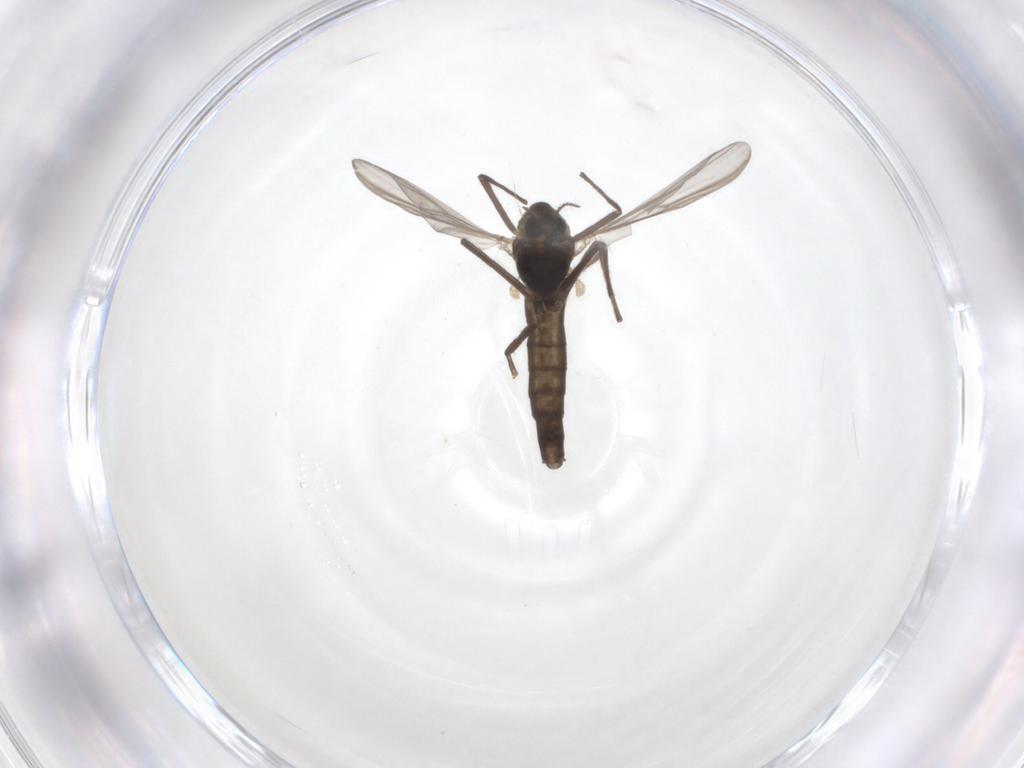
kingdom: Animalia
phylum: Arthropoda
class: Insecta
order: Diptera
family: Chironomidae
